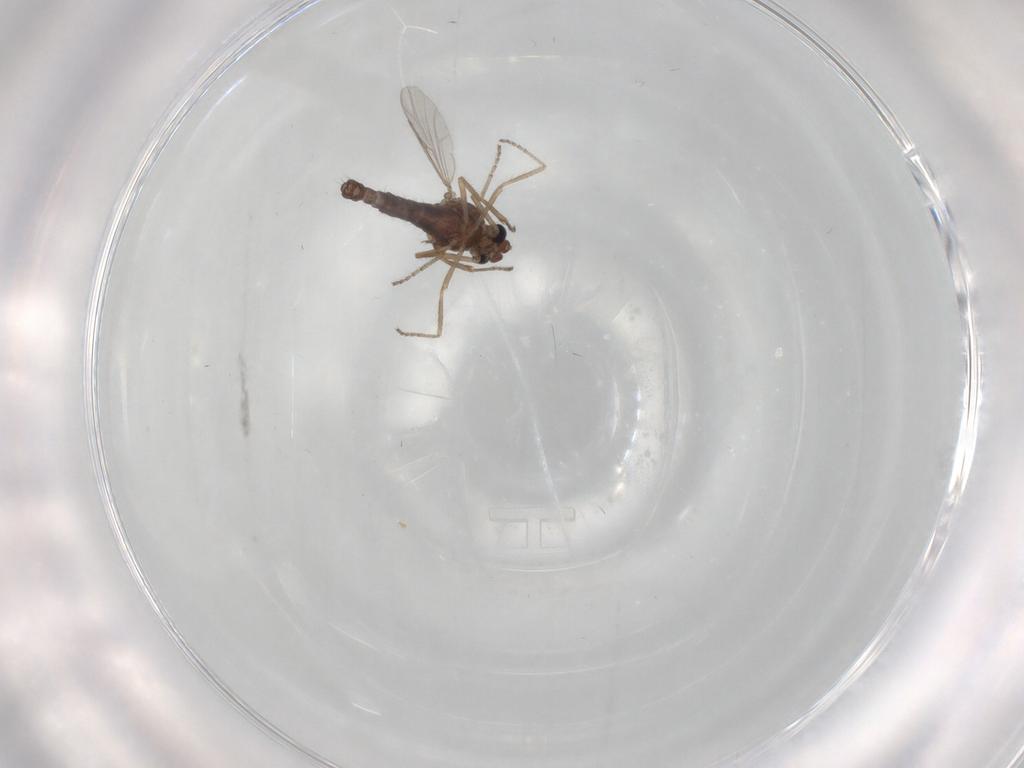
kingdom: Animalia
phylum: Arthropoda
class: Insecta
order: Diptera
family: Ceratopogonidae
